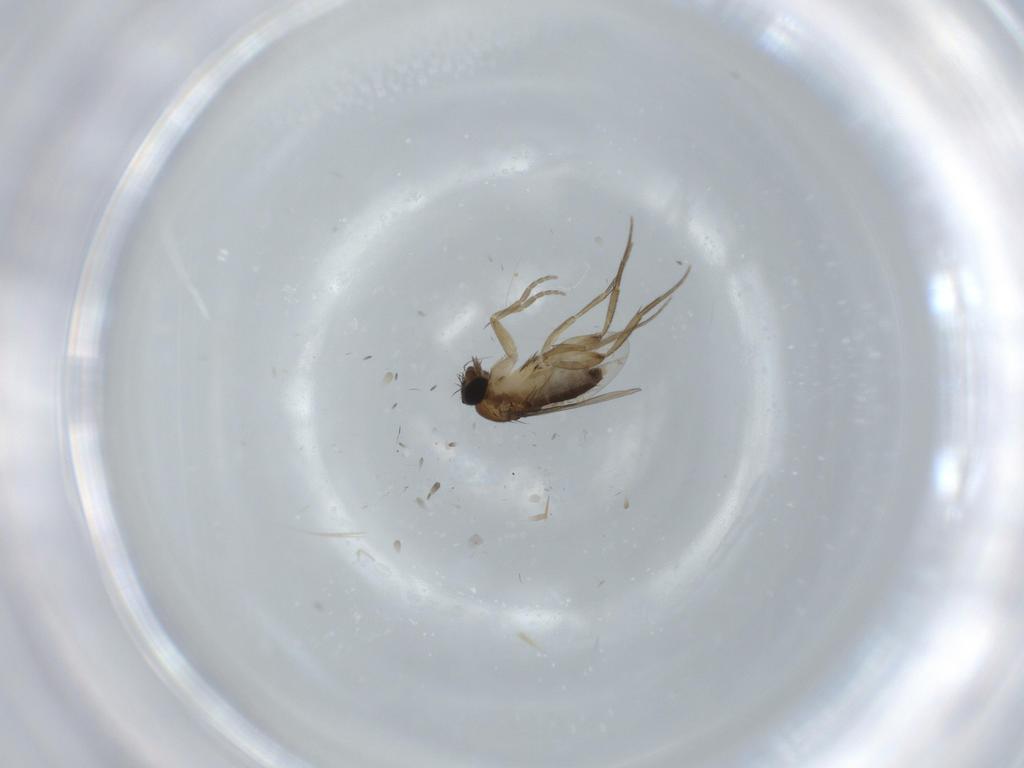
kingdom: Animalia
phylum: Arthropoda
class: Insecta
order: Diptera
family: Phoridae
